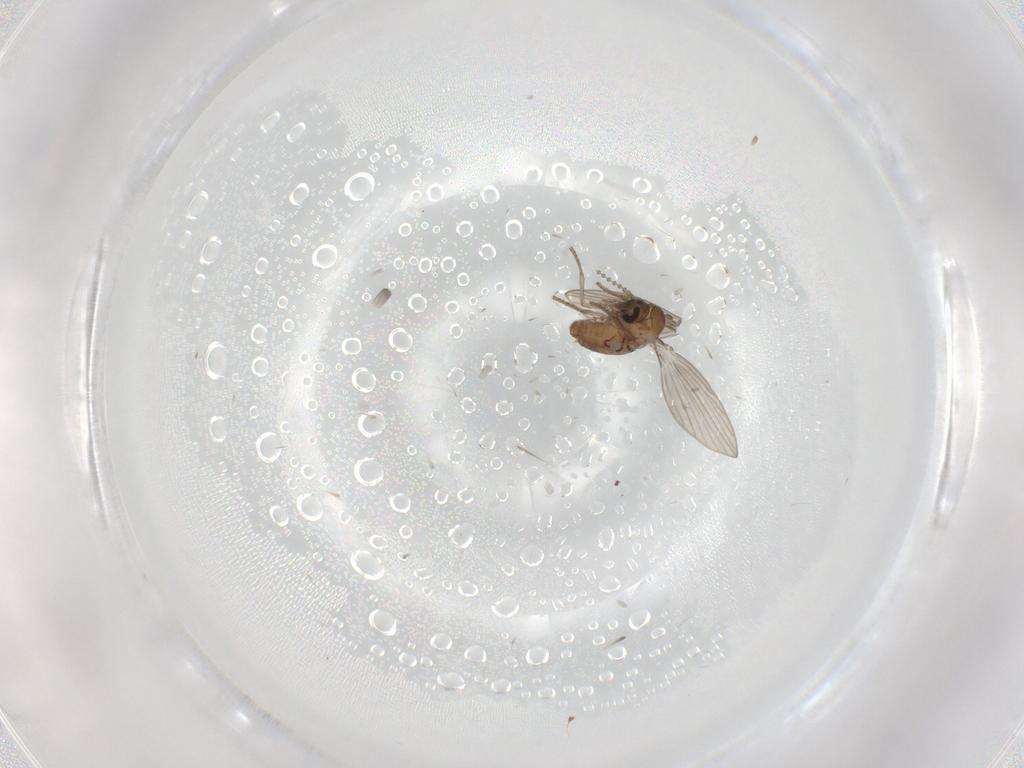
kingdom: Animalia
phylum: Arthropoda
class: Insecta
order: Diptera
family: Psychodidae
